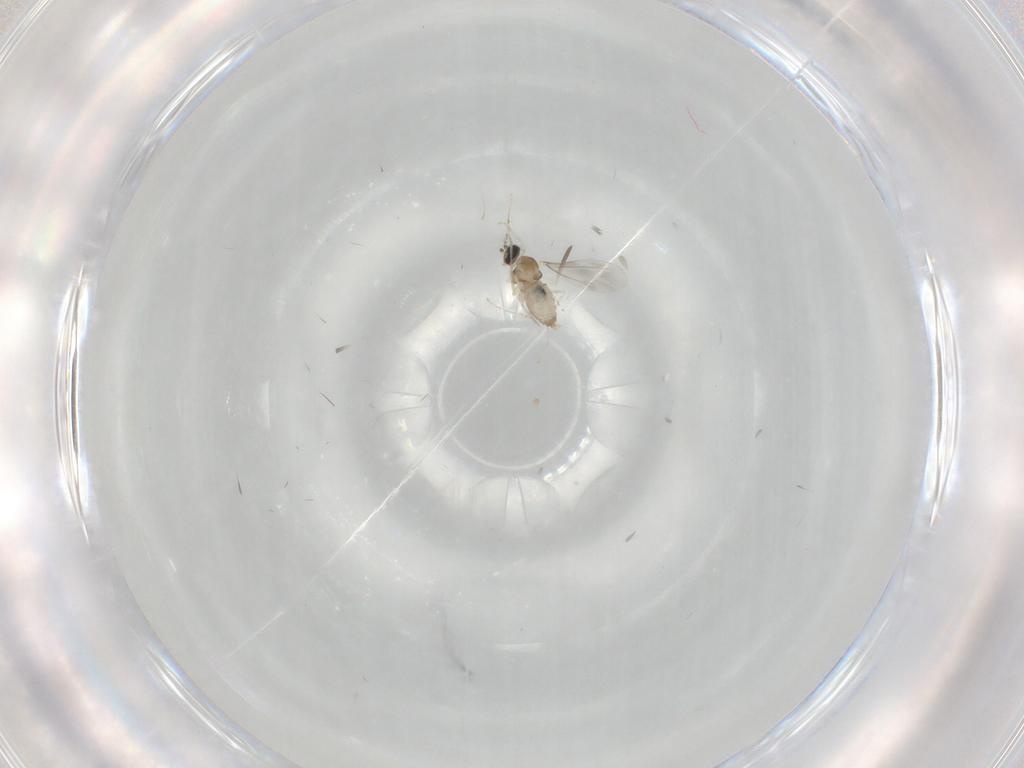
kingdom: Animalia
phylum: Arthropoda
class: Insecta
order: Diptera
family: Cecidomyiidae
